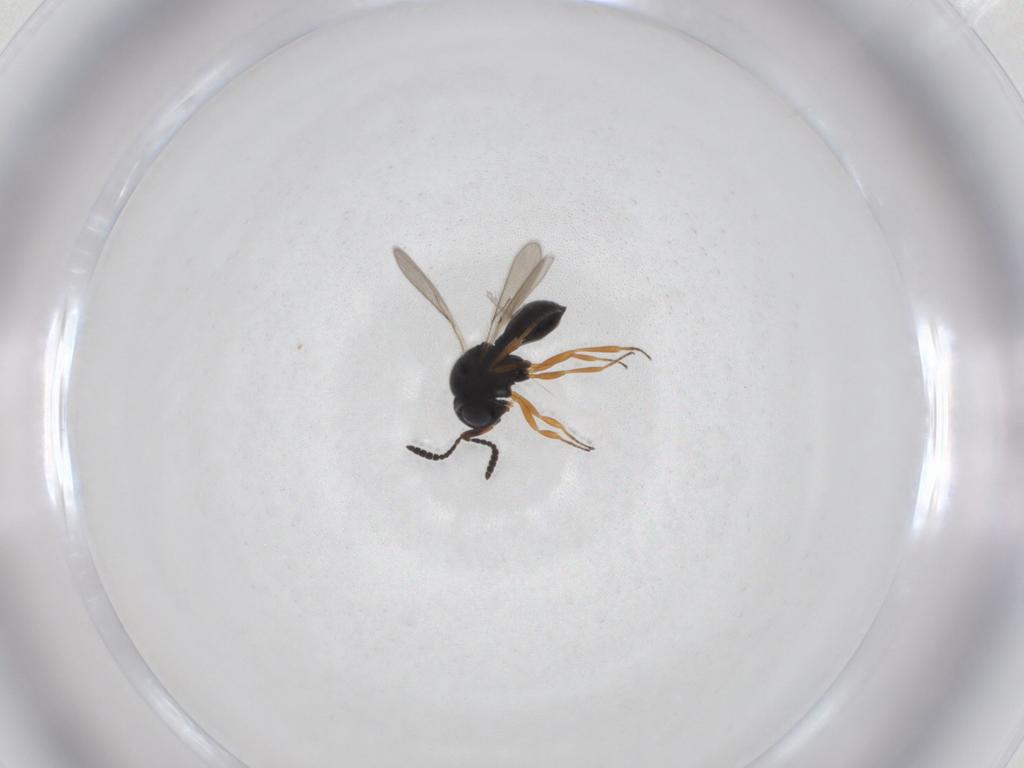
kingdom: Animalia
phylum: Arthropoda
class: Insecta
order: Hymenoptera
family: Scelionidae
